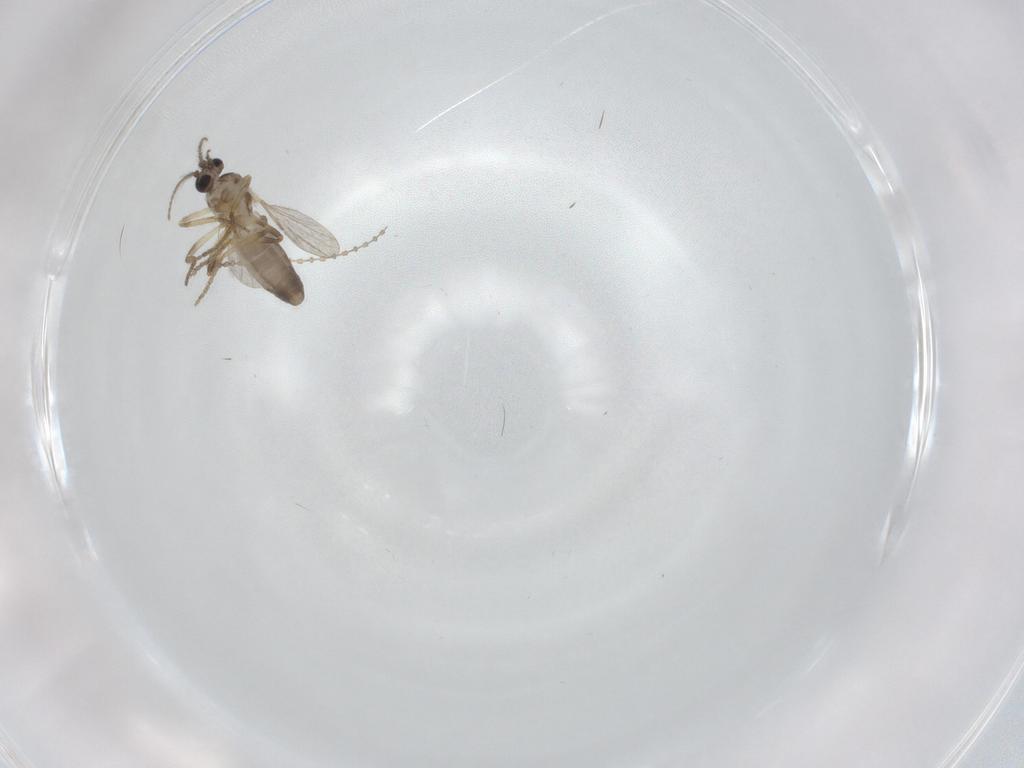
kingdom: Animalia
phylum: Arthropoda
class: Insecta
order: Diptera
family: Ceratopogonidae
